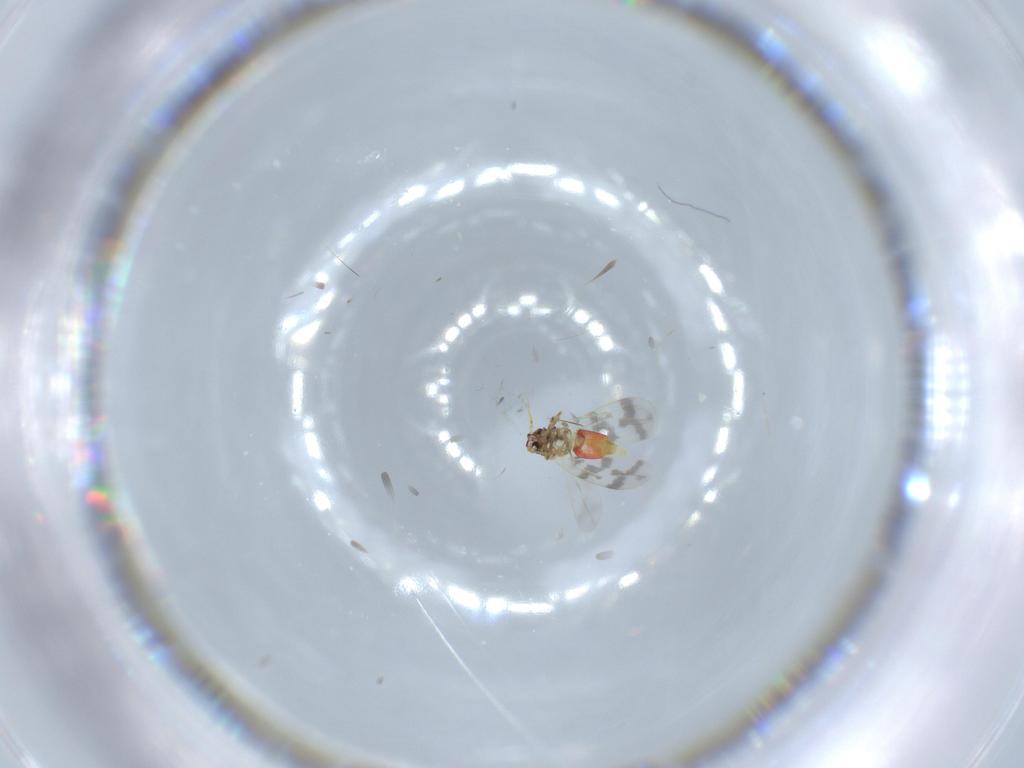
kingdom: Animalia
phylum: Arthropoda
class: Insecta
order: Hemiptera
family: Aleyrodidae
